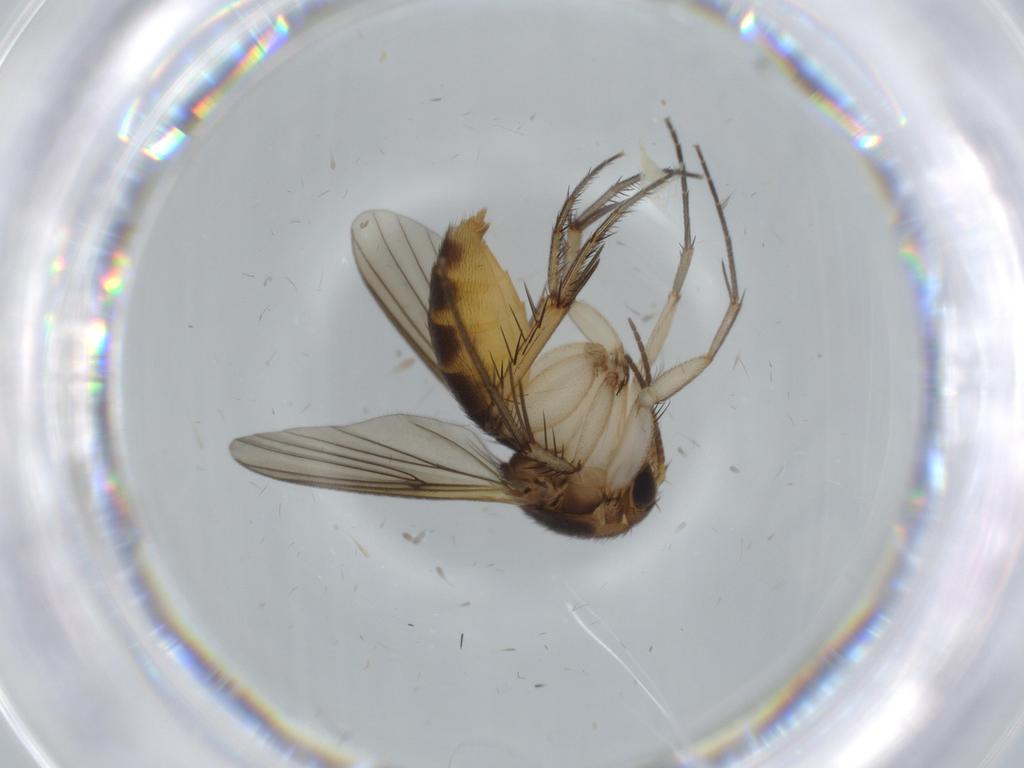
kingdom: Animalia
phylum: Arthropoda
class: Insecta
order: Diptera
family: Mycetophilidae
